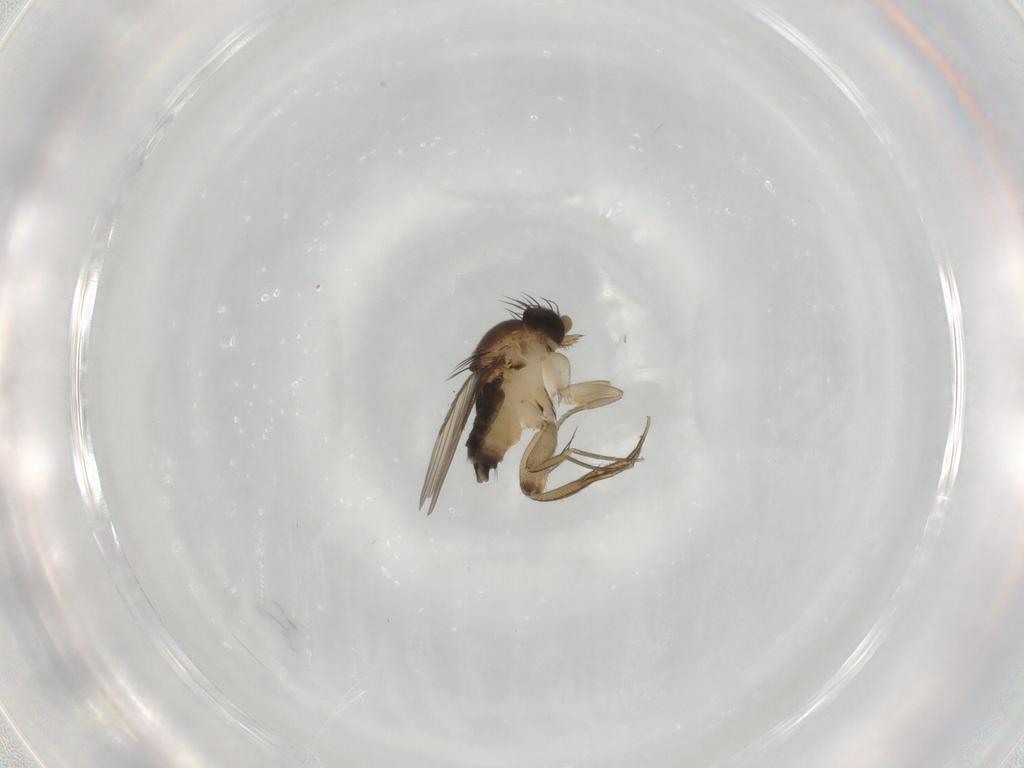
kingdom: Animalia
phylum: Arthropoda
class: Insecta
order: Diptera
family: Phoridae
